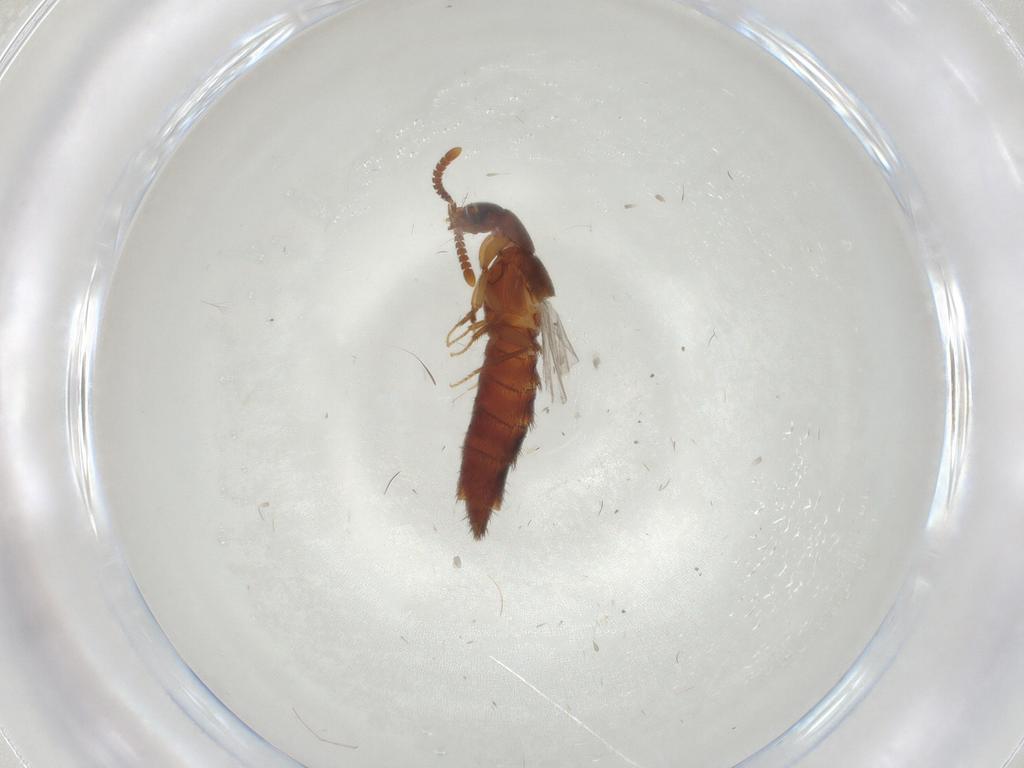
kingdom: Animalia
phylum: Arthropoda
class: Insecta
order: Coleoptera
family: Staphylinidae
